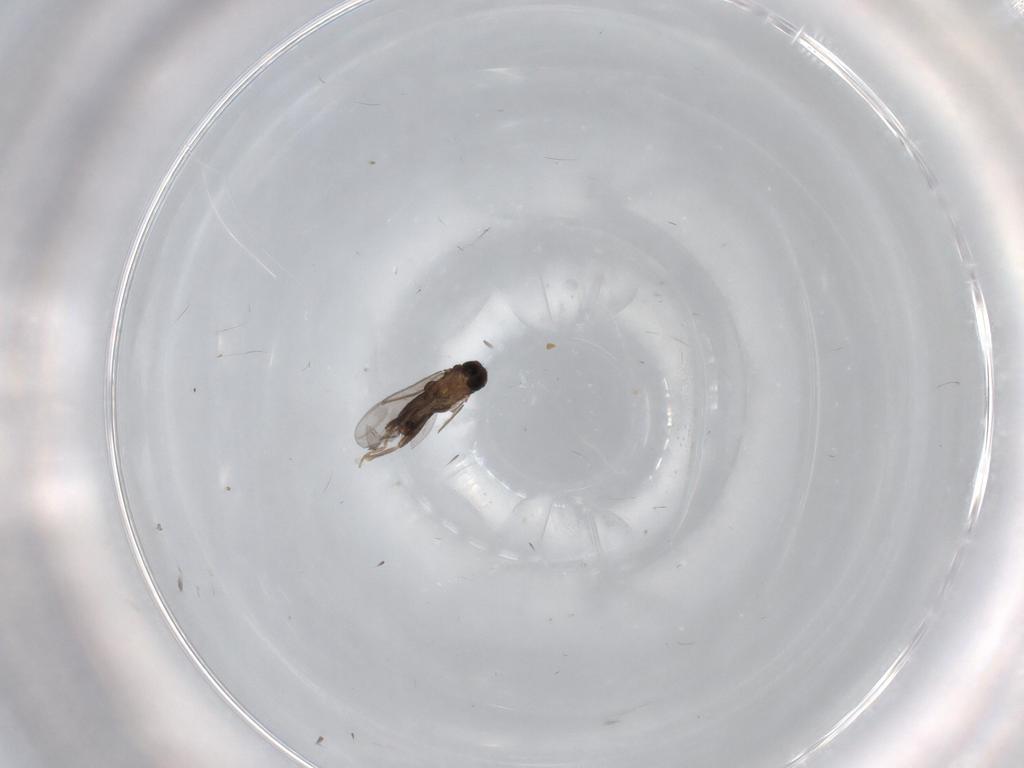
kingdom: Animalia
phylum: Arthropoda
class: Insecta
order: Diptera
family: Phoridae
